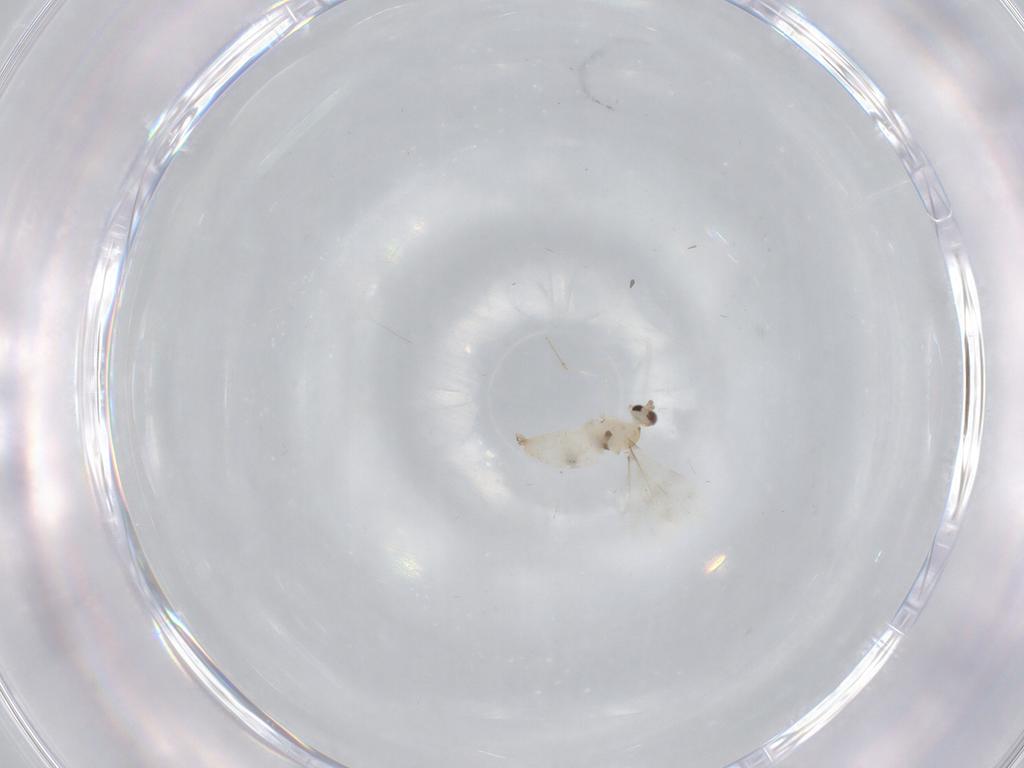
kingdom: Animalia
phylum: Arthropoda
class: Insecta
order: Diptera
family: Cecidomyiidae
